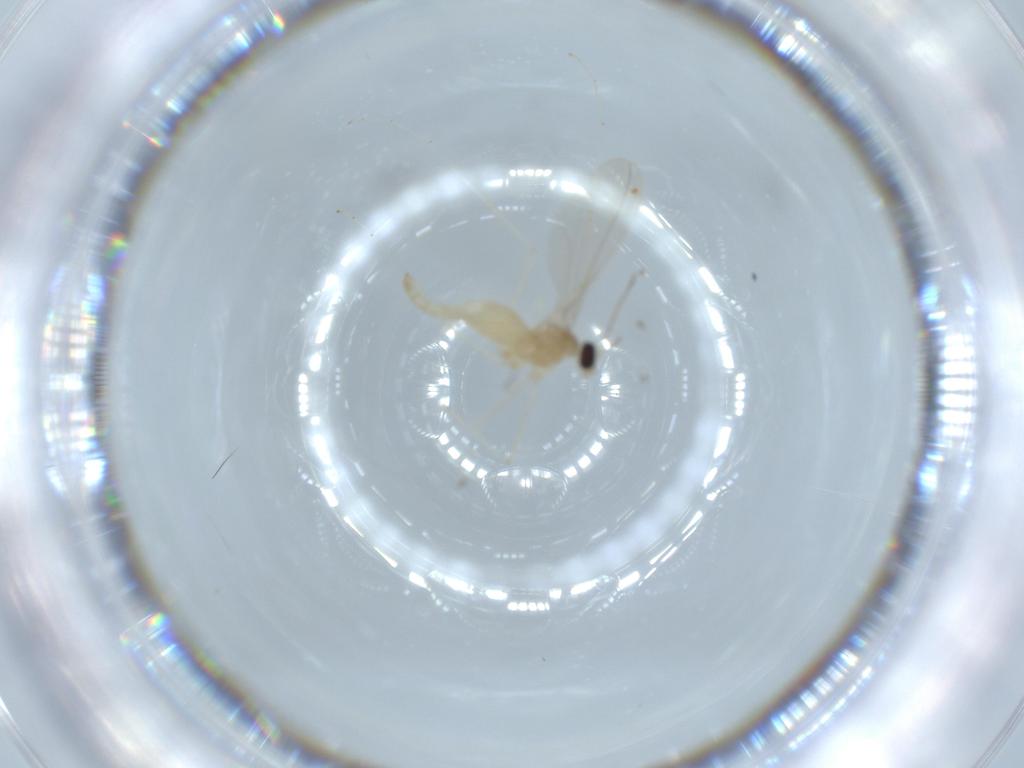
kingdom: Animalia
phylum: Arthropoda
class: Insecta
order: Diptera
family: Cecidomyiidae
